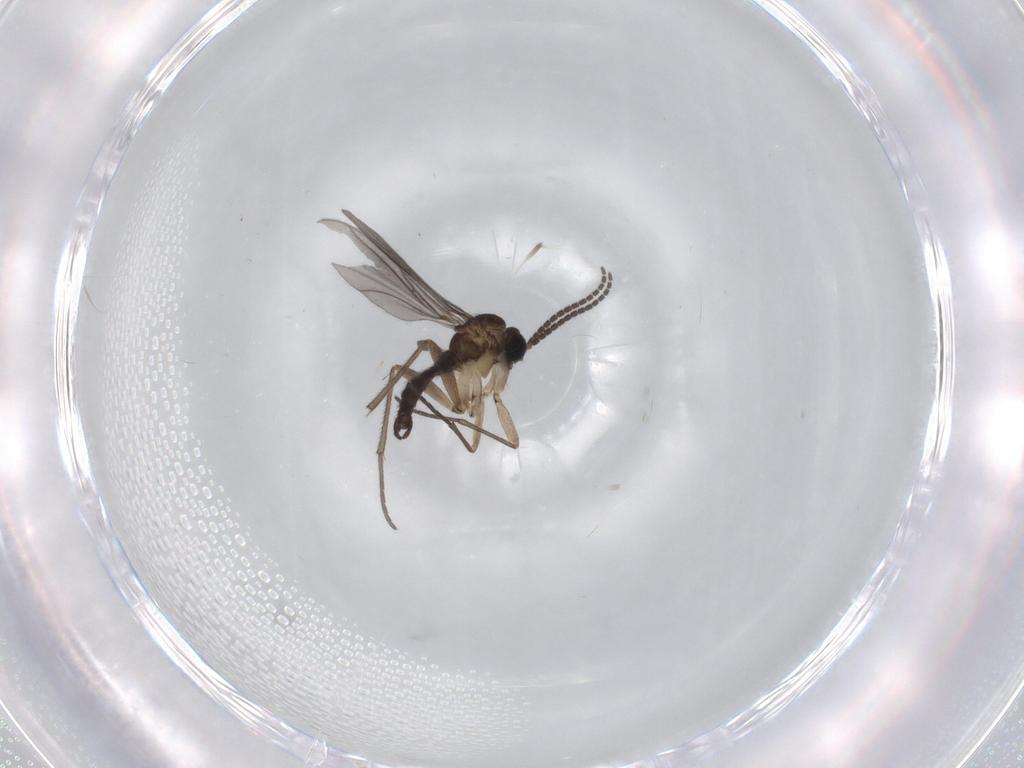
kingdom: Animalia
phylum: Arthropoda
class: Insecta
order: Diptera
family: Sciaridae
